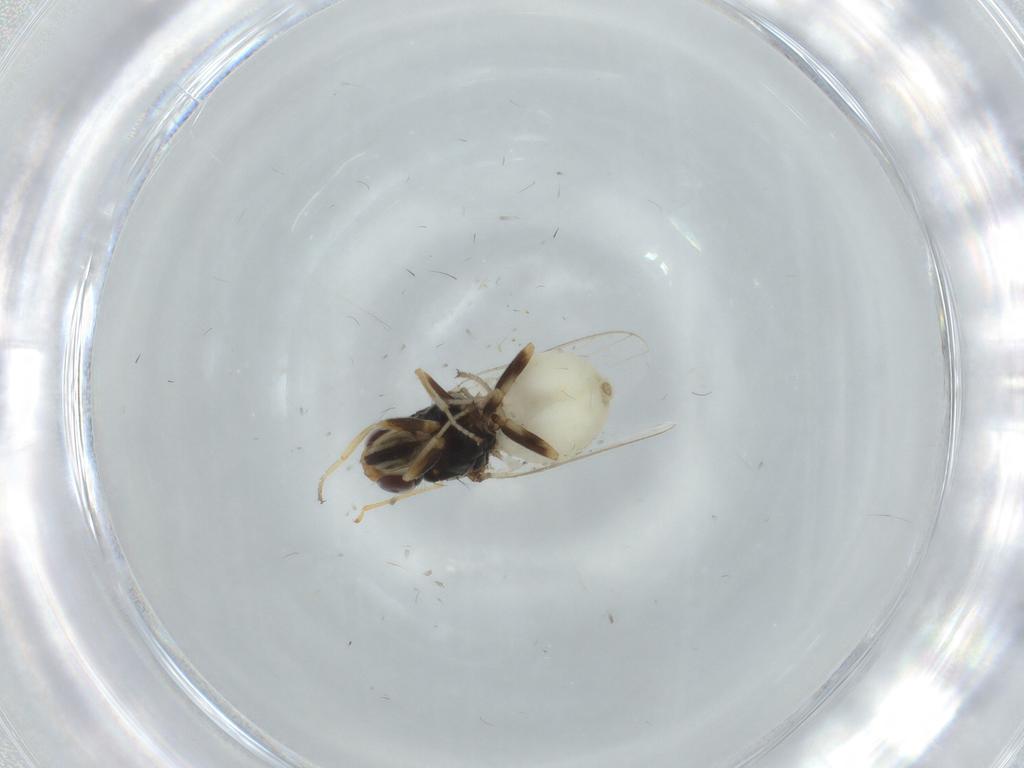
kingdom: Animalia
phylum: Arthropoda
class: Insecta
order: Diptera
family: Chloropidae
